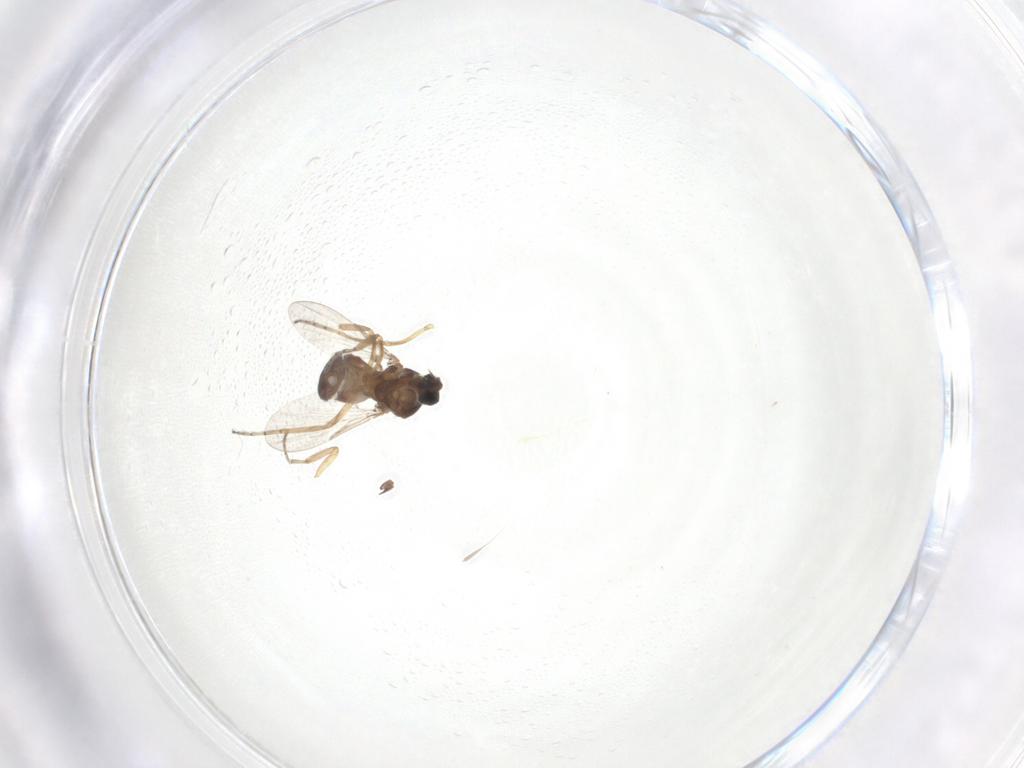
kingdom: Animalia
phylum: Arthropoda
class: Insecta
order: Diptera
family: Ceratopogonidae
